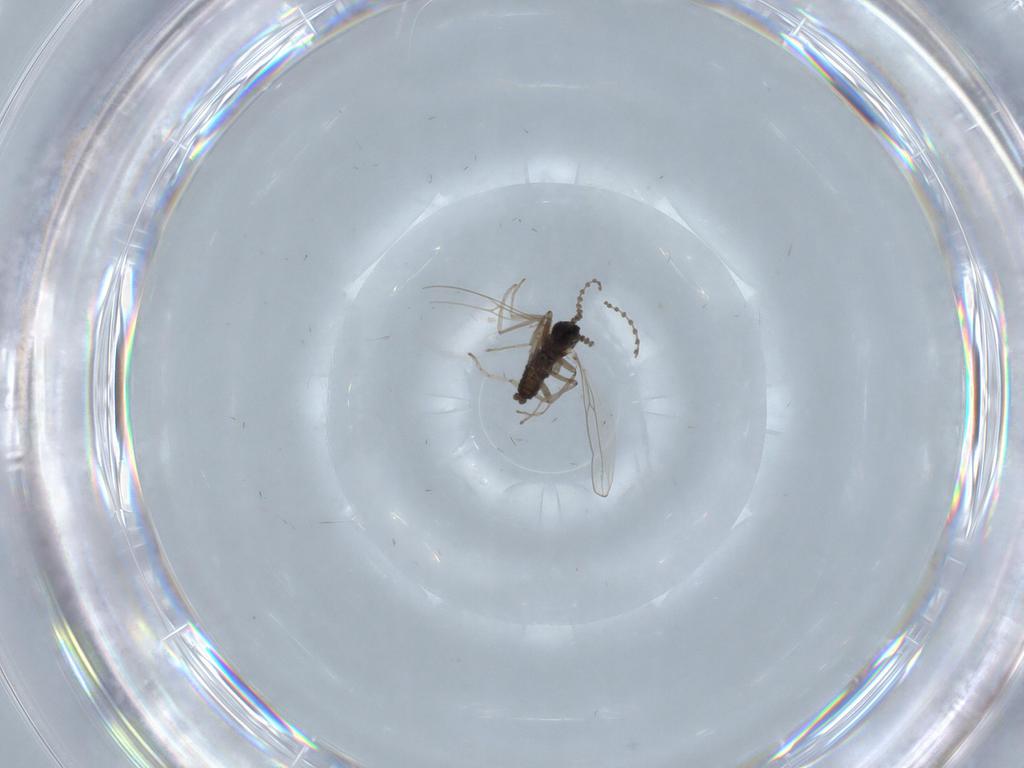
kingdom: Animalia
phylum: Arthropoda
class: Insecta
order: Diptera
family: Cecidomyiidae
